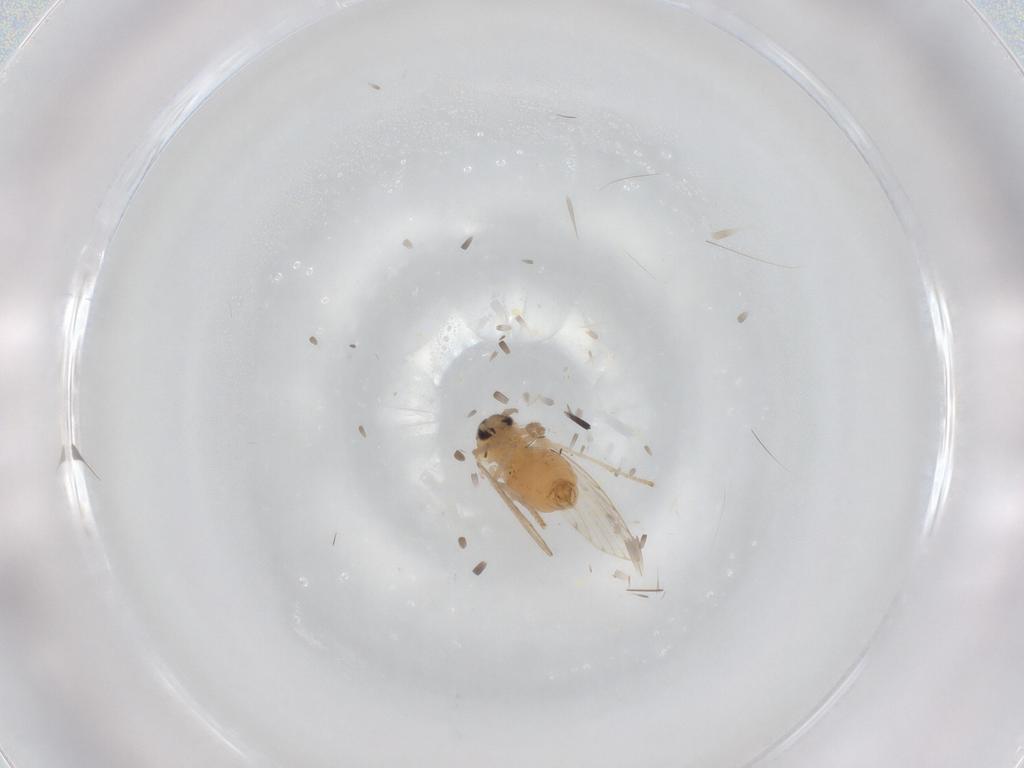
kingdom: Animalia
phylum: Arthropoda
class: Insecta
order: Diptera
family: Psychodidae
